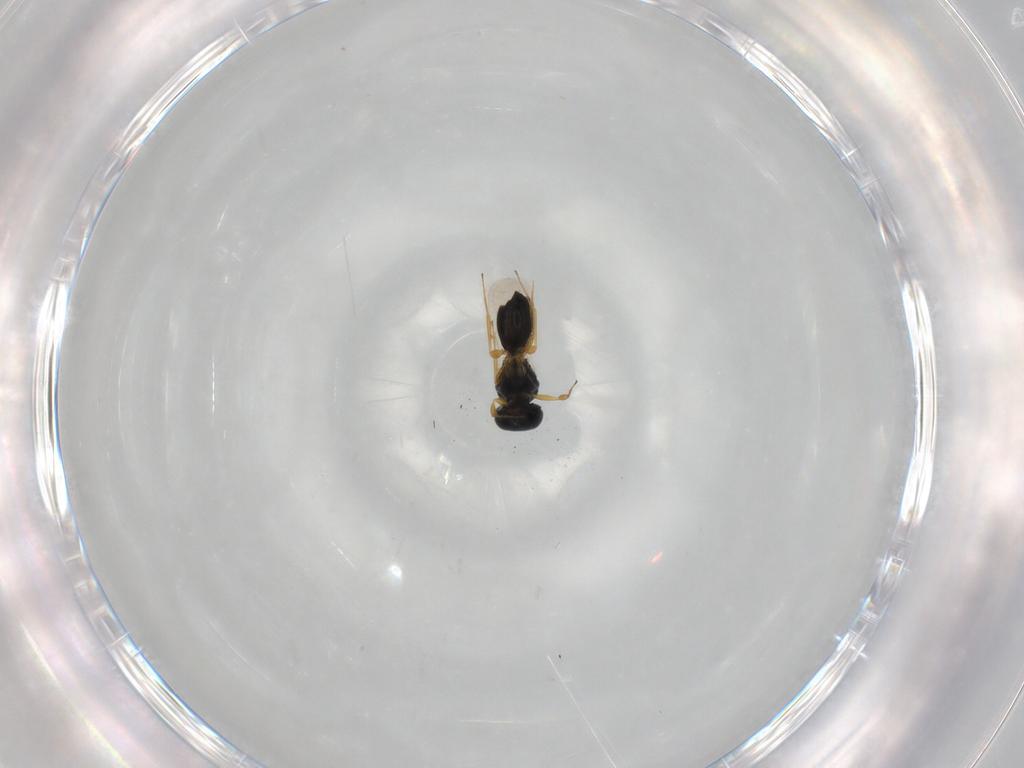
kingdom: Animalia
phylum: Arthropoda
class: Insecta
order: Hymenoptera
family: Scelionidae
